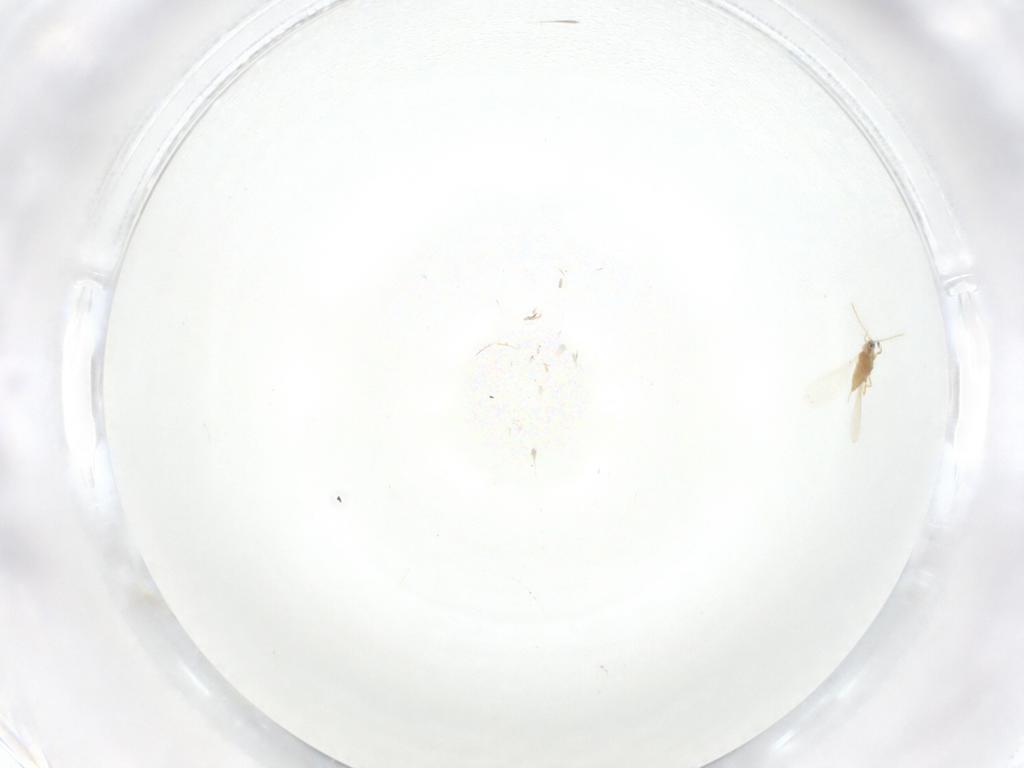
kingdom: Animalia
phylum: Arthropoda
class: Insecta
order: Hemiptera
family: Diaspididae
